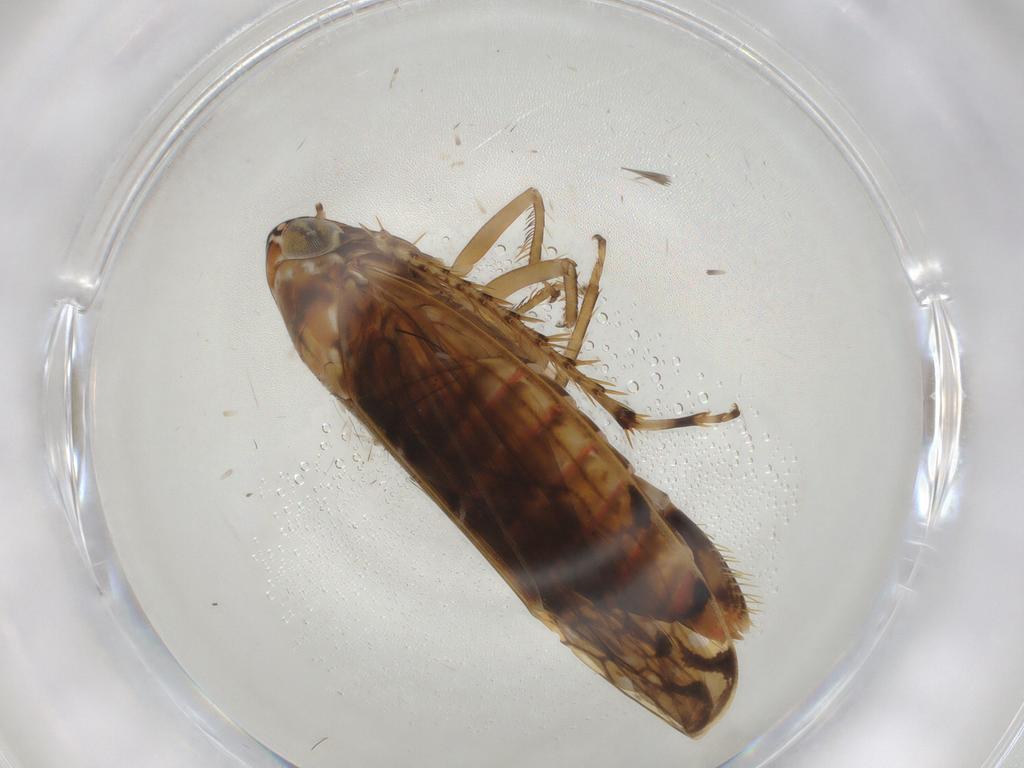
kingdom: Animalia
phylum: Arthropoda
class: Insecta
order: Hemiptera
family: Cicadellidae
